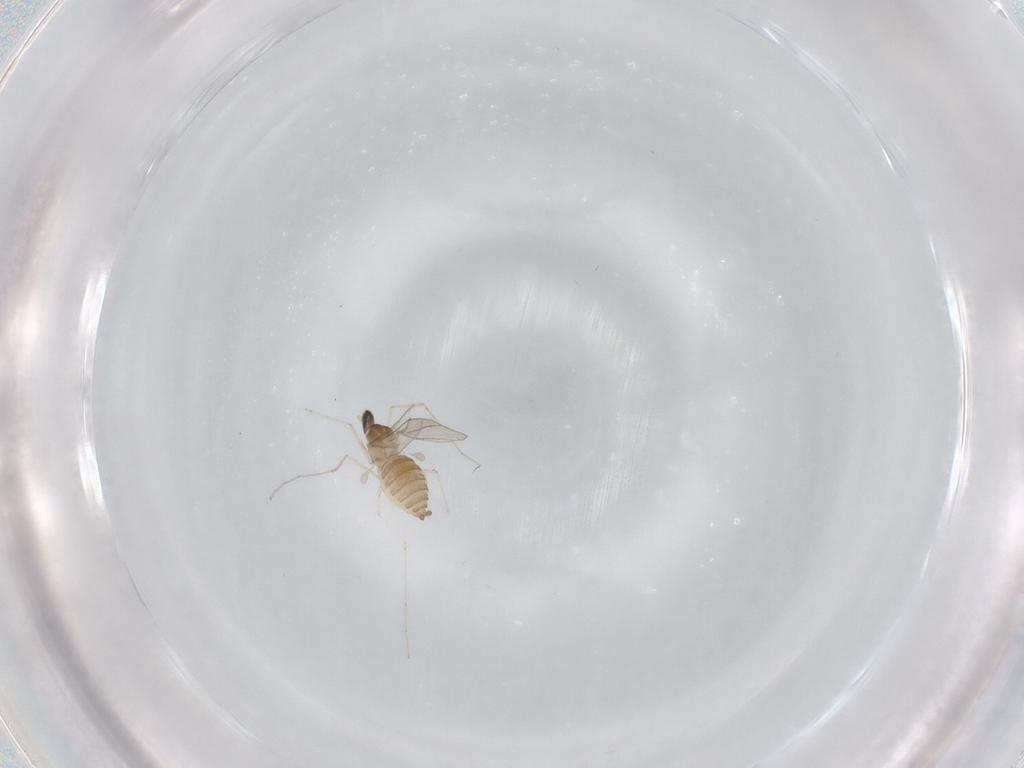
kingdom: Animalia
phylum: Arthropoda
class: Insecta
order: Diptera
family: Cecidomyiidae
